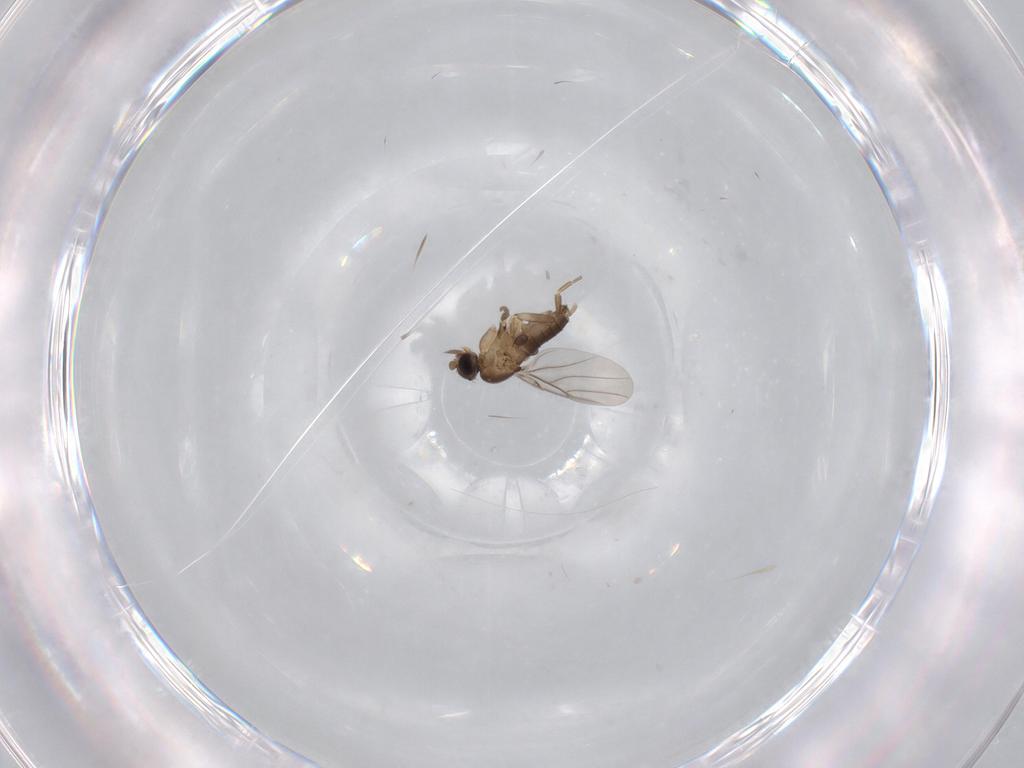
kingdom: Animalia
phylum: Arthropoda
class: Insecta
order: Diptera
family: Phoridae
